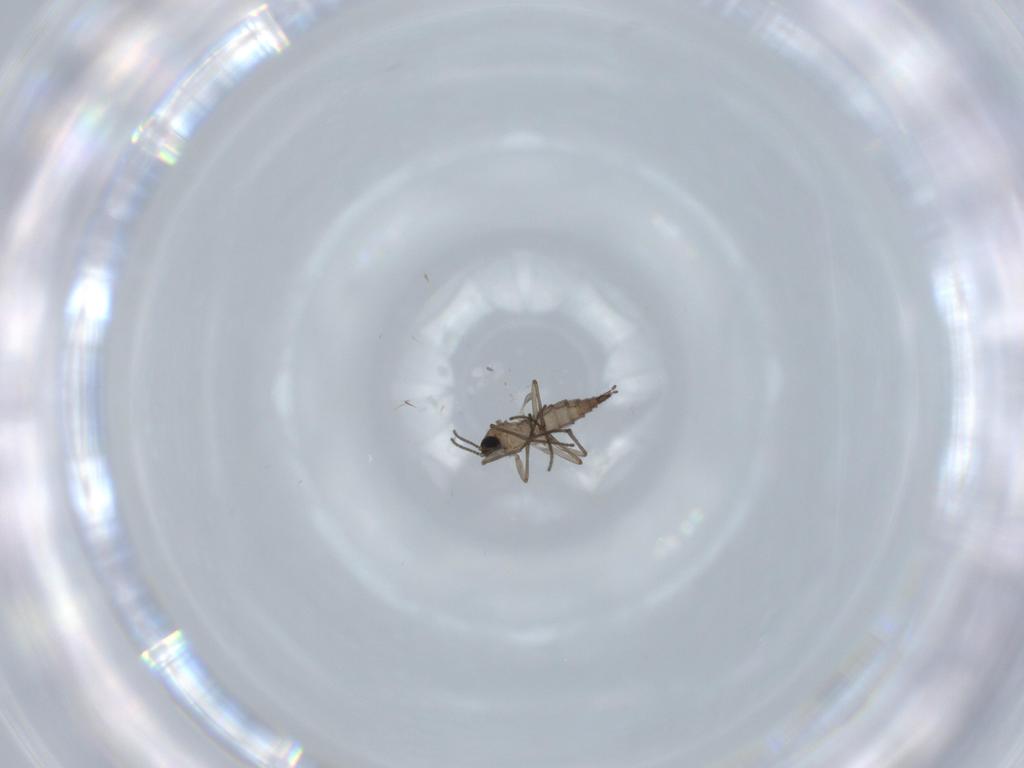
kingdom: Animalia
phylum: Arthropoda
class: Insecta
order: Diptera
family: Sciaridae
